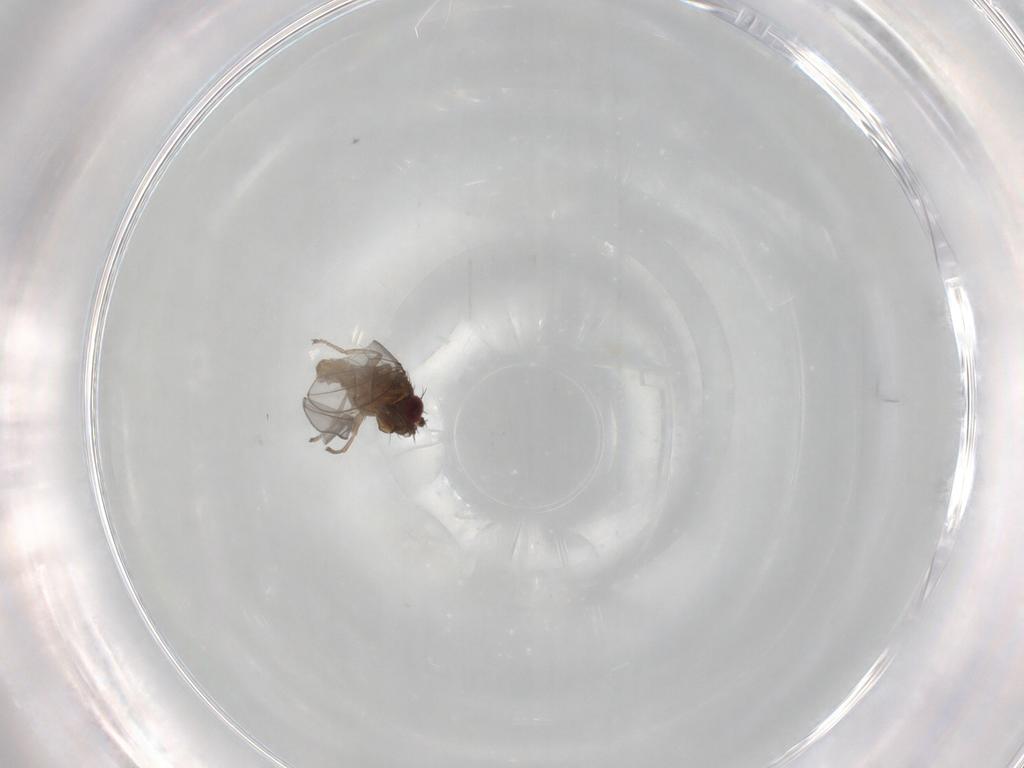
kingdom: Animalia
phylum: Arthropoda
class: Insecta
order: Diptera
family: Ephydridae
